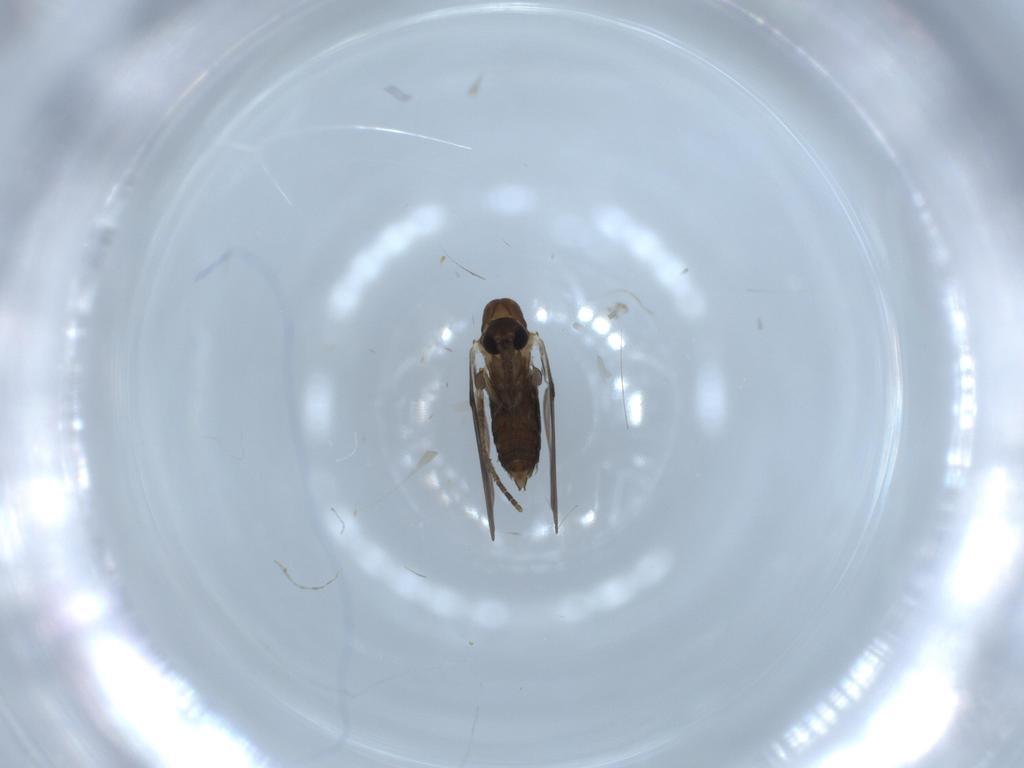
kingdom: Animalia
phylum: Arthropoda
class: Insecta
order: Diptera
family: Psychodidae
